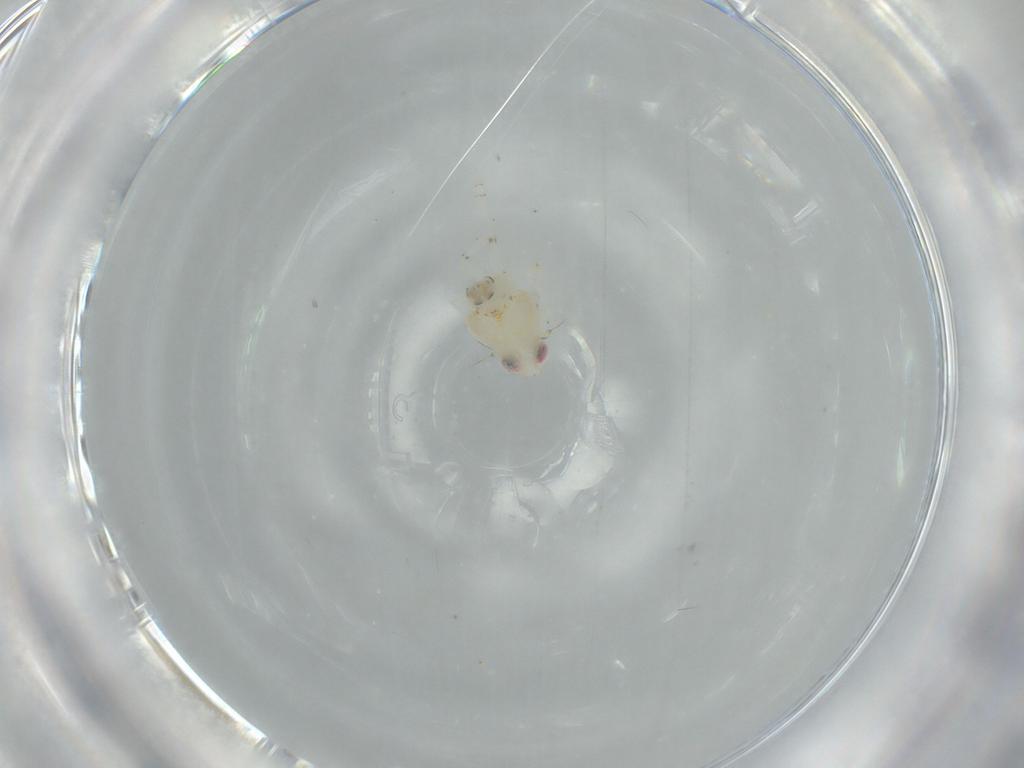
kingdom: Animalia
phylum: Arthropoda
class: Insecta
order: Hemiptera
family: Nogodinidae
